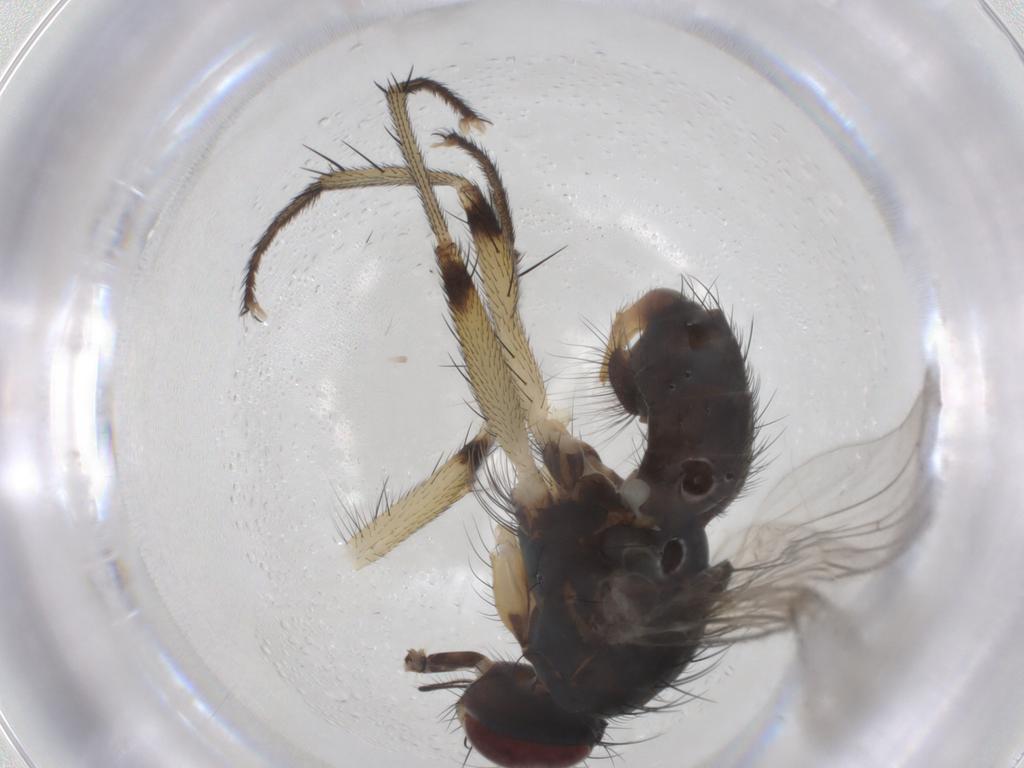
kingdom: Animalia
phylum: Arthropoda
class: Insecta
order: Diptera
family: Muscidae
